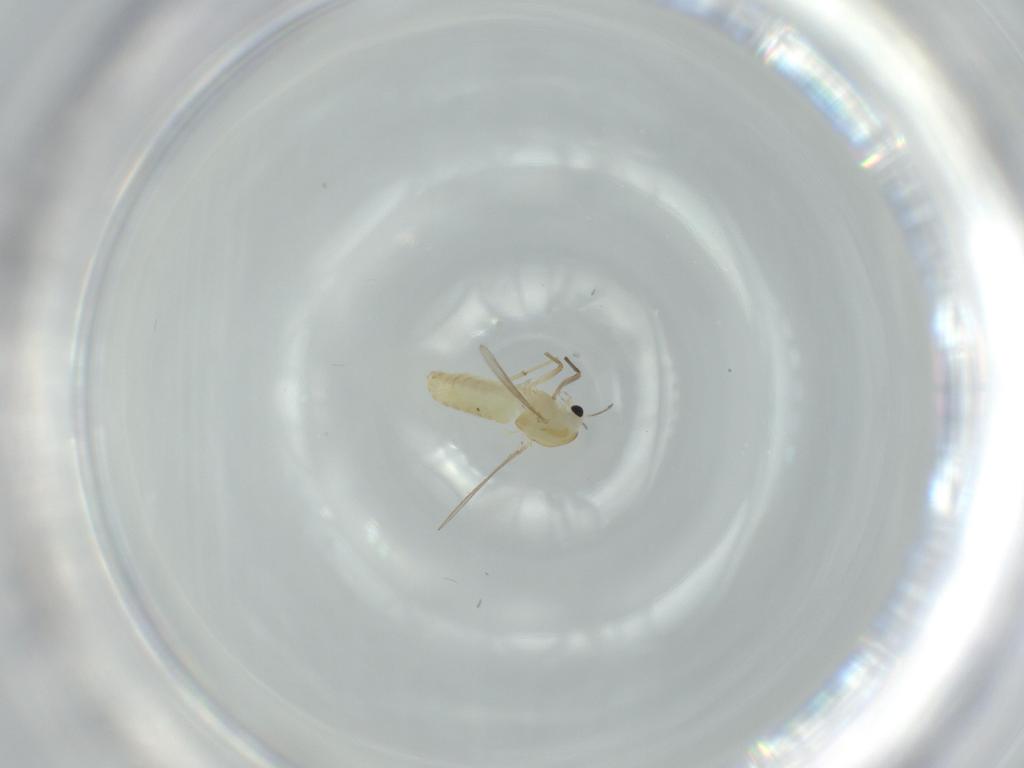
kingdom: Animalia
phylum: Arthropoda
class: Insecta
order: Diptera
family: Chironomidae
